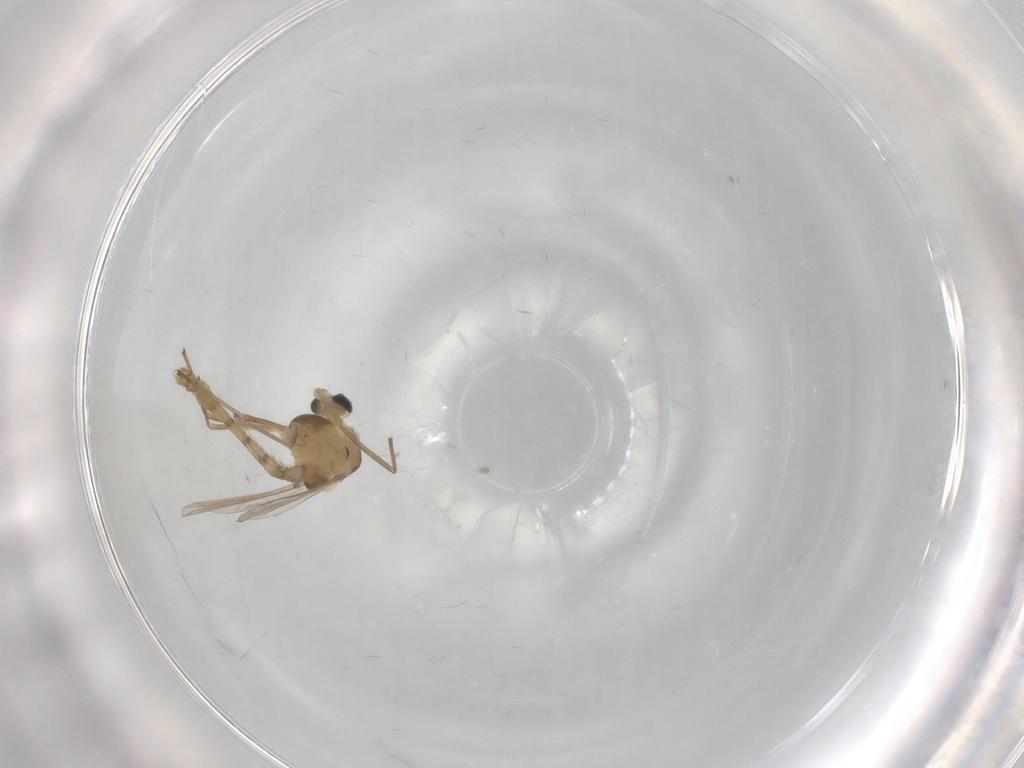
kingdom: Animalia
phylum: Arthropoda
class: Insecta
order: Diptera
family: Chironomidae
